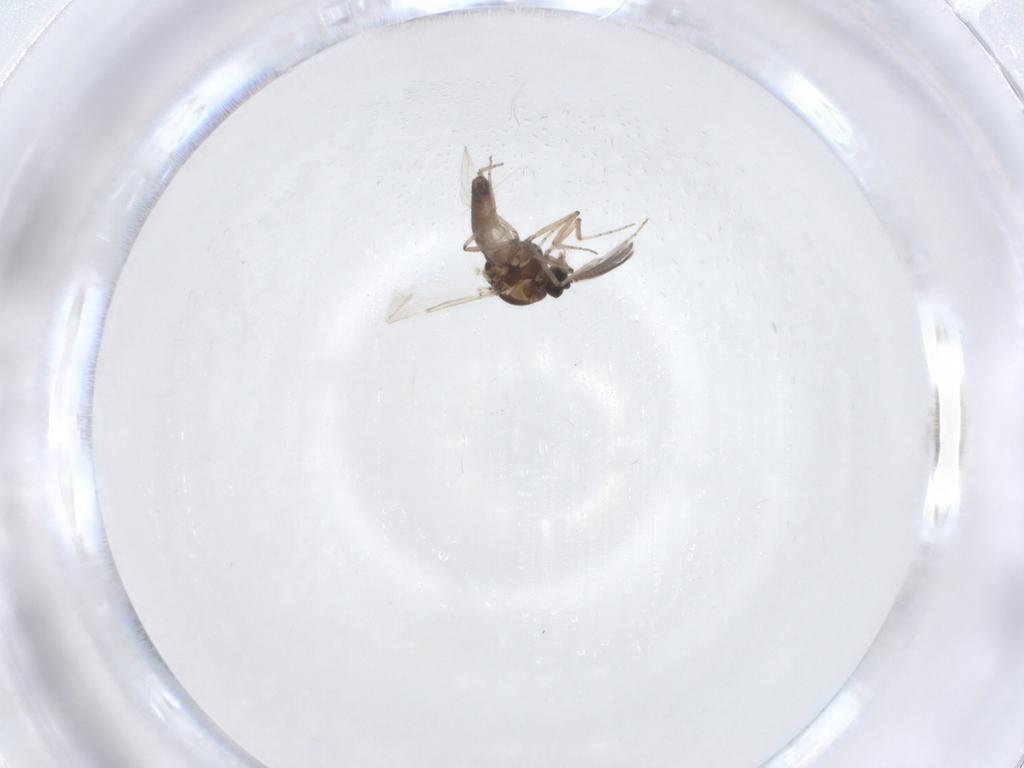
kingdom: Animalia
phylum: Arthropoda
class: Insecta
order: Diptera
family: Ceratopogonidae
